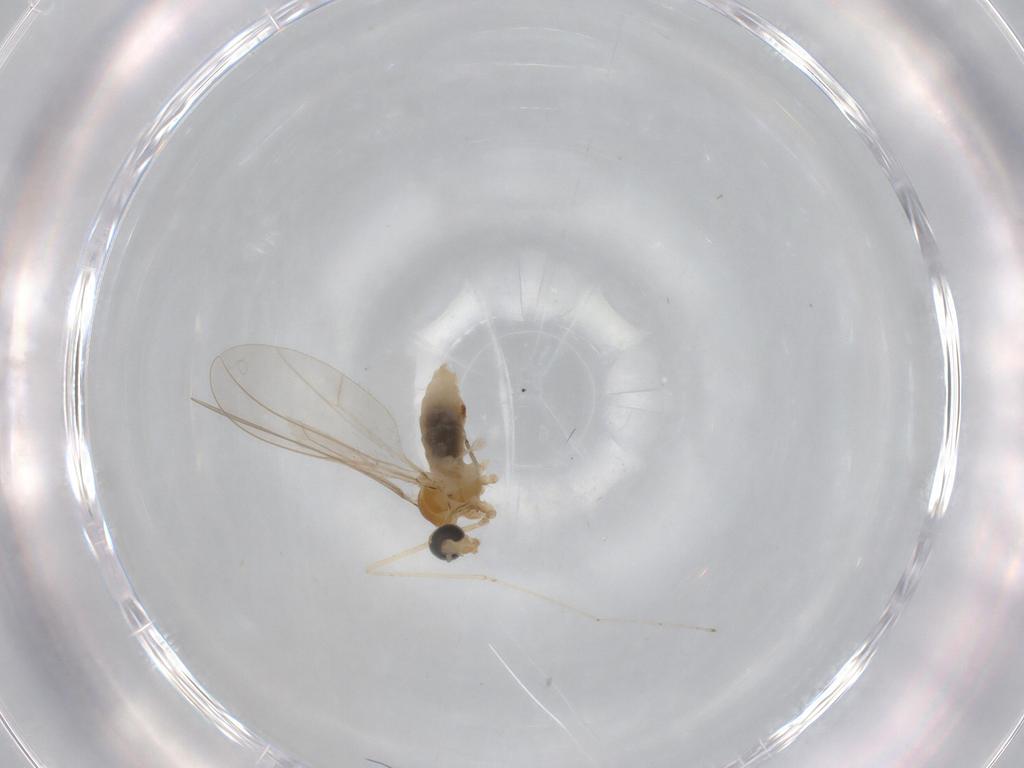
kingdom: Animalia
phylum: Arthropoda
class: Insecta
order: Diptera
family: Cecidomyiidae
